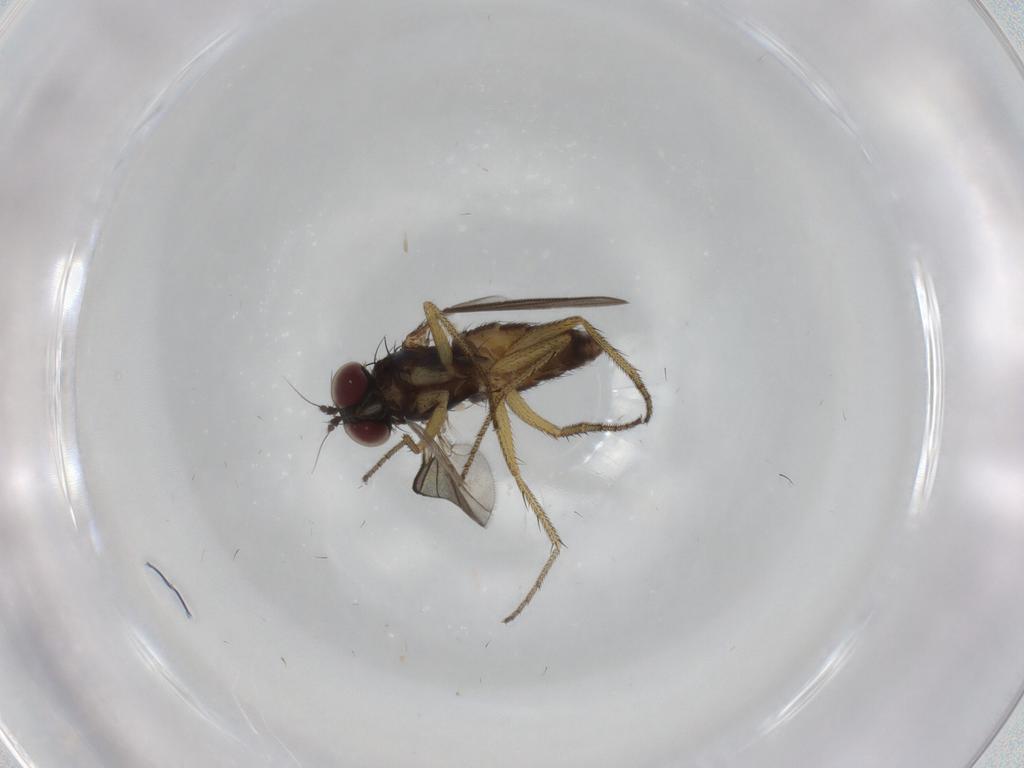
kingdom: Animalia
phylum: Arthropoda
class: Insecta
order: Diptera
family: Dolichopodidae
